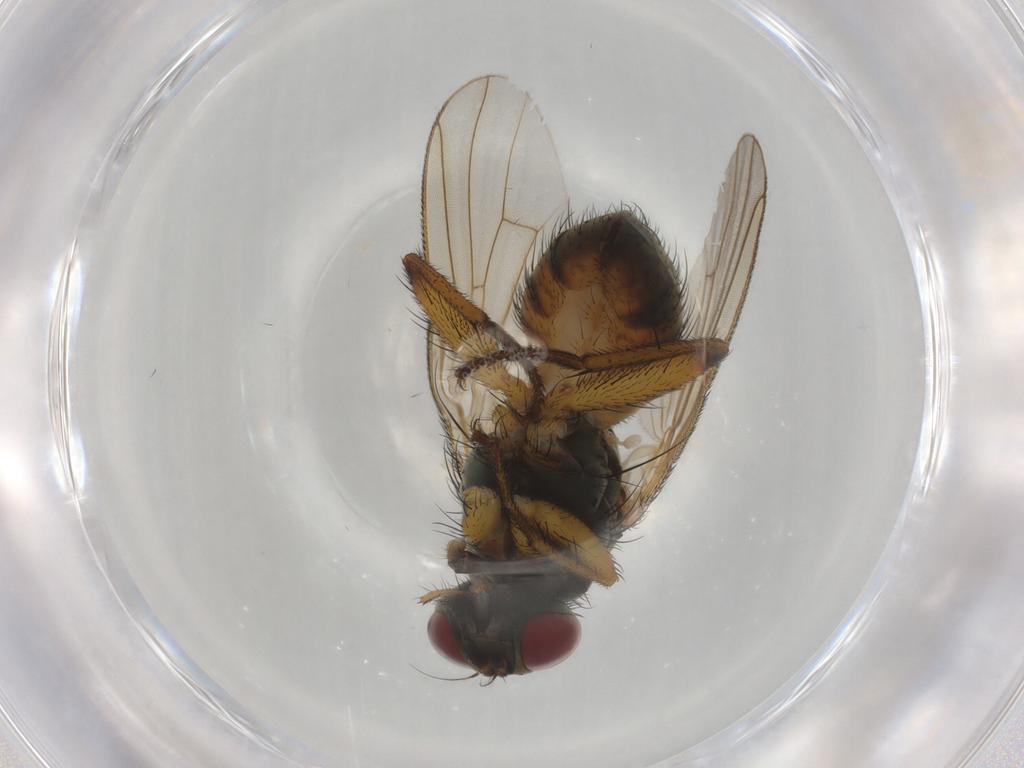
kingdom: Animalia
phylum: Arthropoda
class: Insecta
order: Diptera
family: Muscidae
